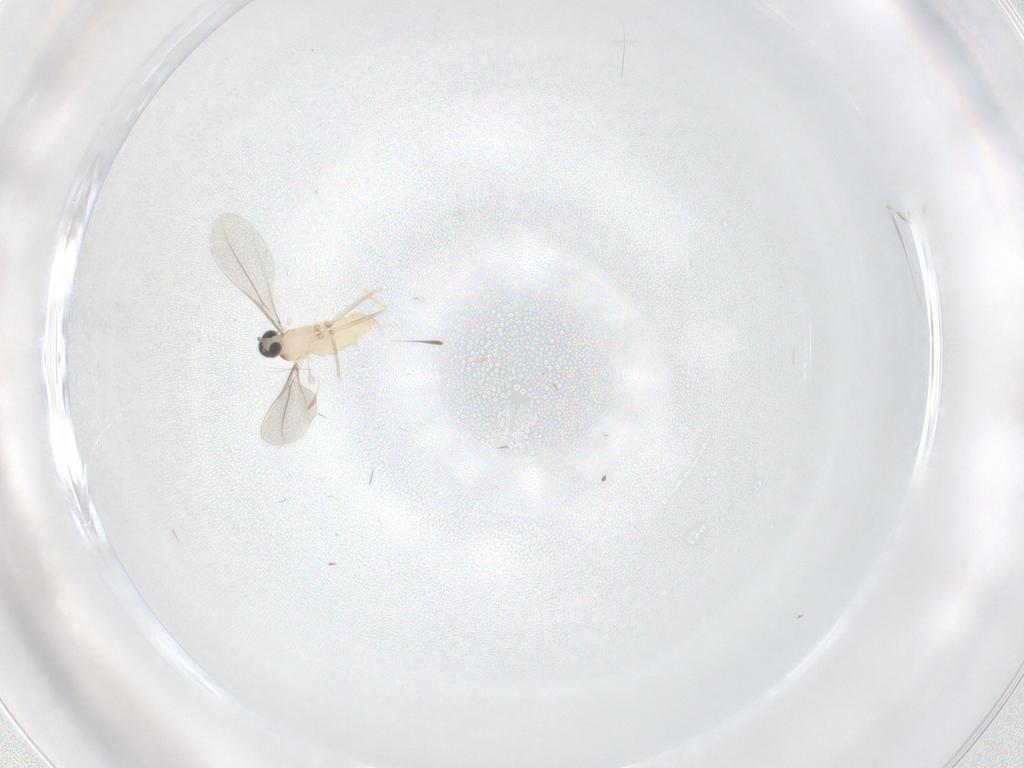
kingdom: Animalia
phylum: Arthropoda
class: Insecta
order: Diptera
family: Cecidomyiidae
